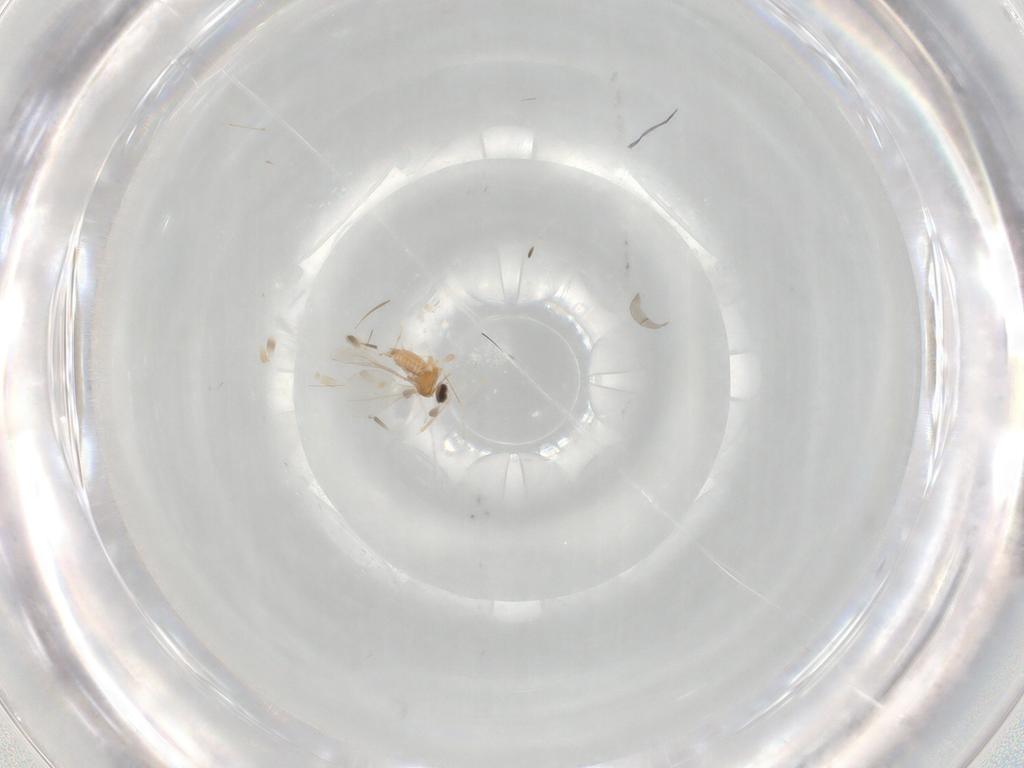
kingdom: Animalia
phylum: Arthropoda
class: Insecta
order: Diptera
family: Cecidomyiidae
